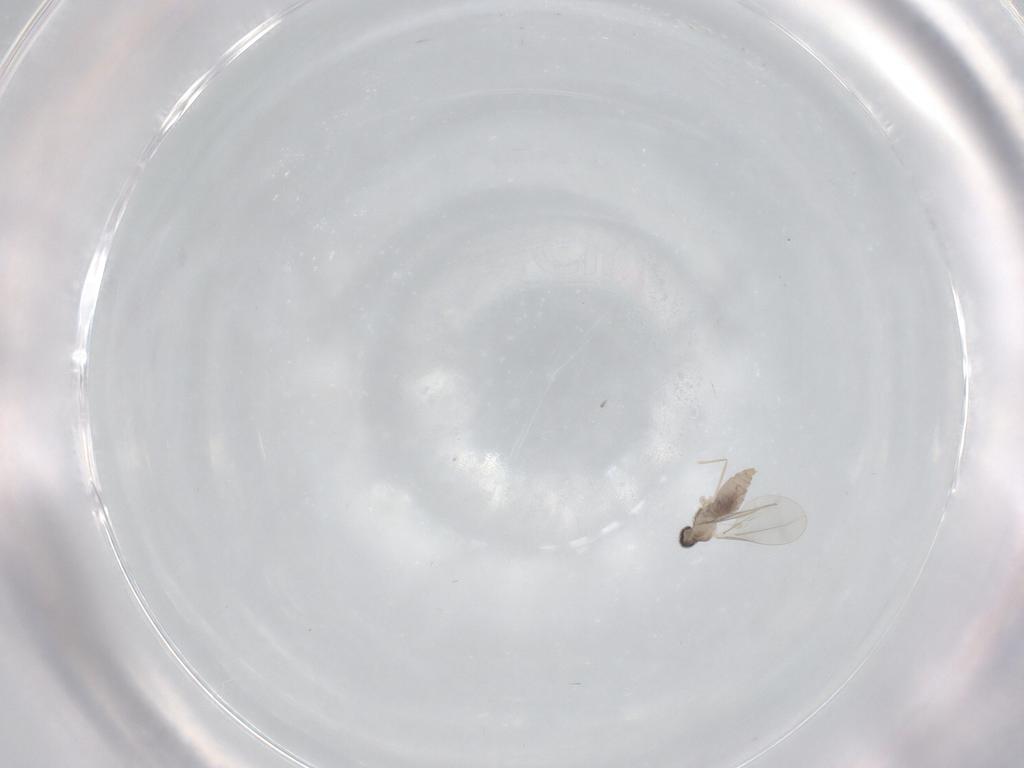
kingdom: Animalia
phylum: Arthropoda
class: Insecta
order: Diptera
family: Cecidomyiidae
